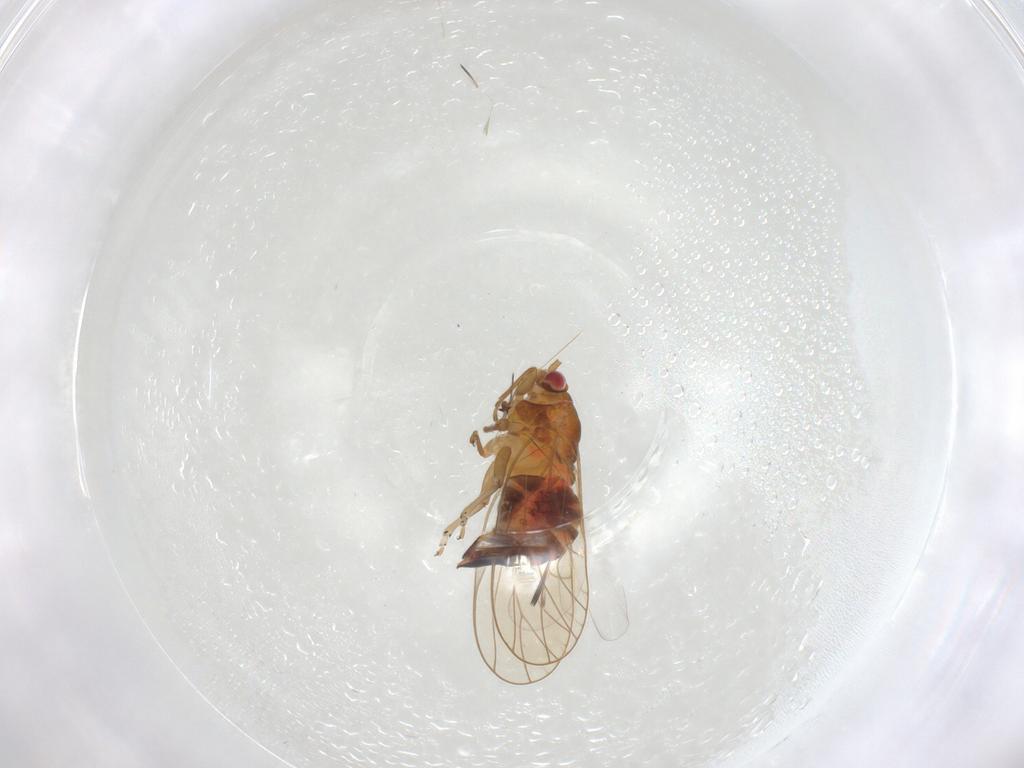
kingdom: Animalia
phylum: Arthropoda
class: Insecta
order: Hemiptera
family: Psyllidae
